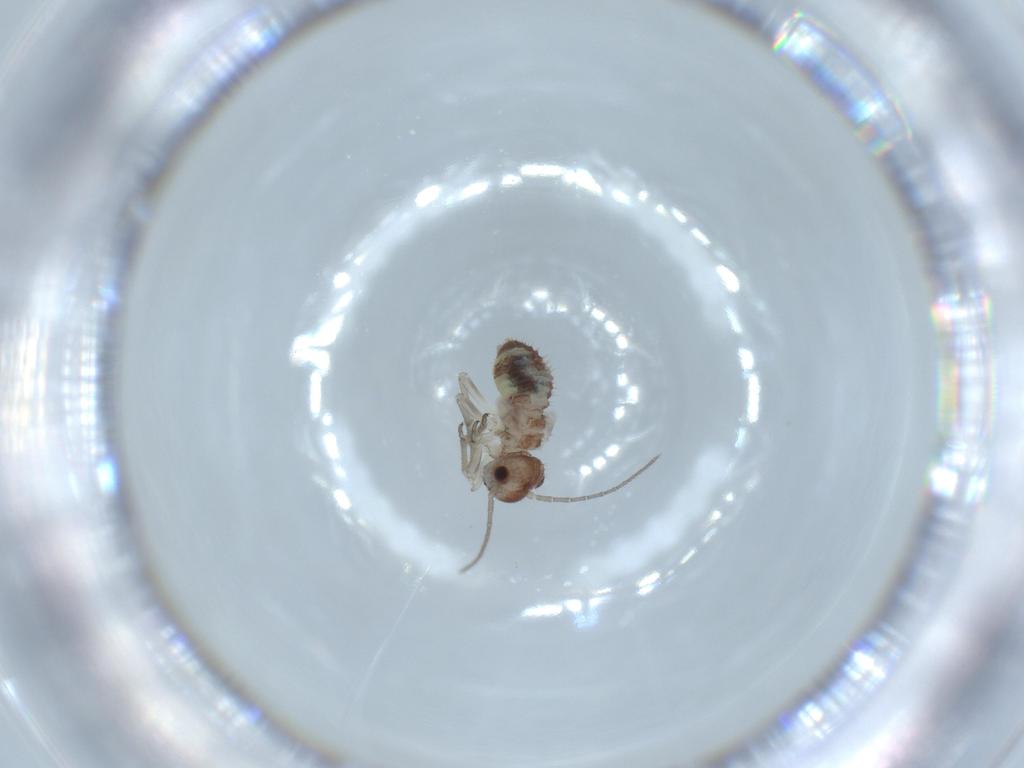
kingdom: Animalia
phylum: Arthropoda
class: Insecta
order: Psocodea
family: Psocidae
